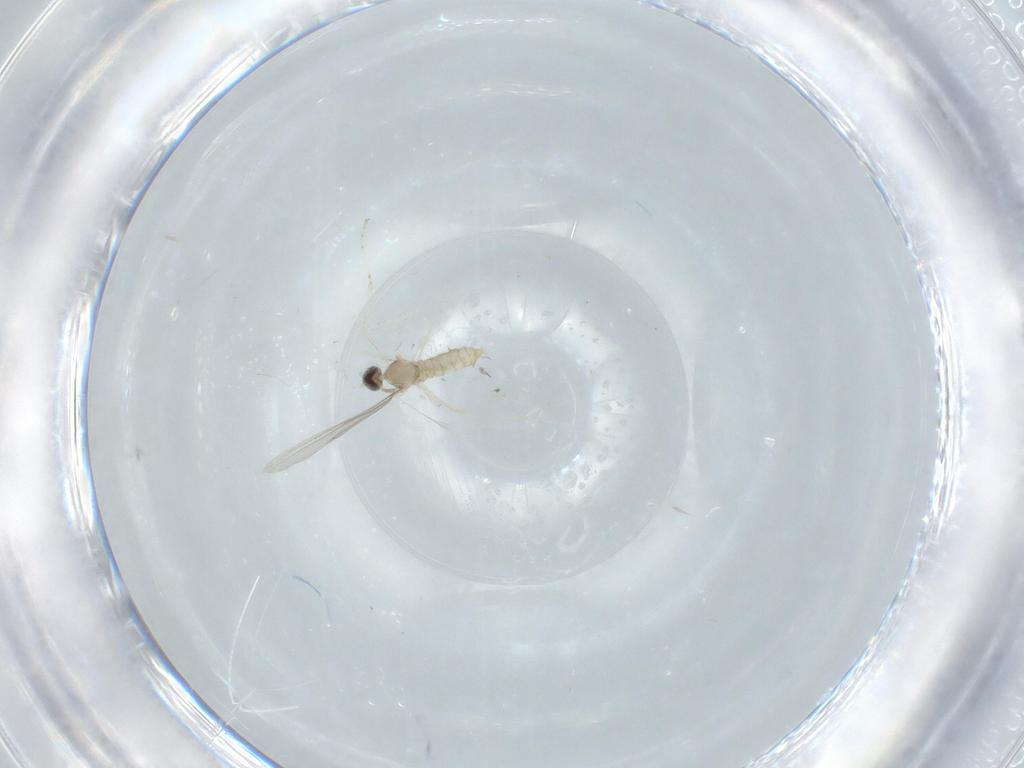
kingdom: Animalia
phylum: Arthropoda
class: Insecta
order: Diptera
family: Cecidomyiidae
